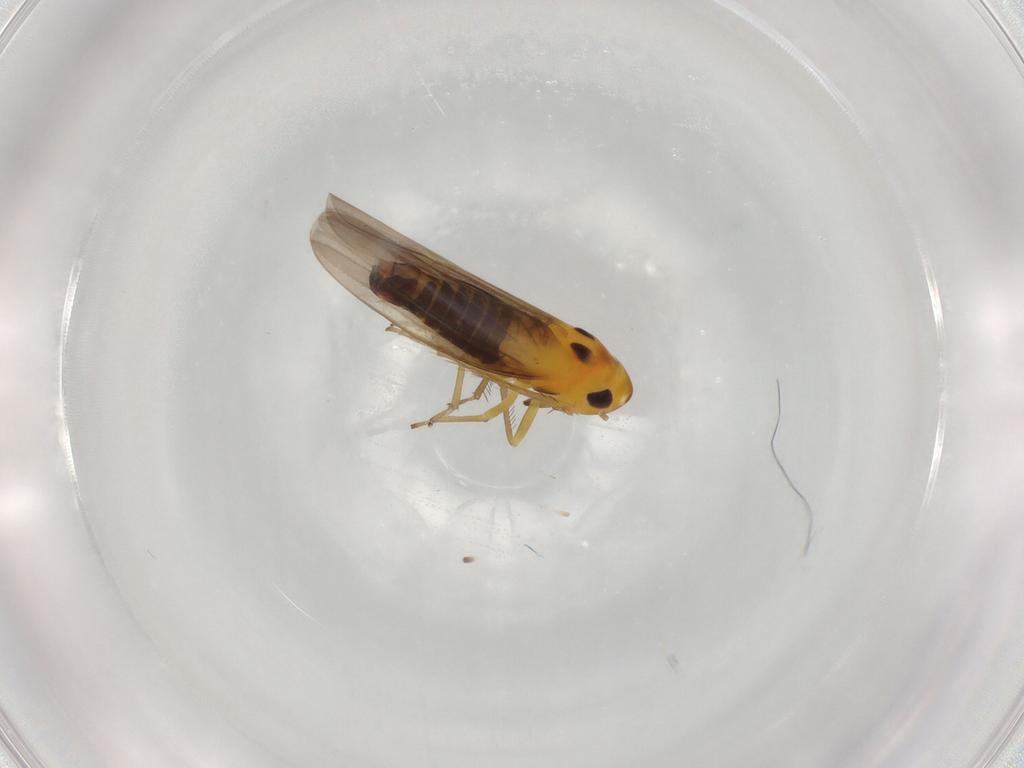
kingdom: Animalia
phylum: Arthropoda
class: Insecta
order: Hemiptera
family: Cicadellidae
